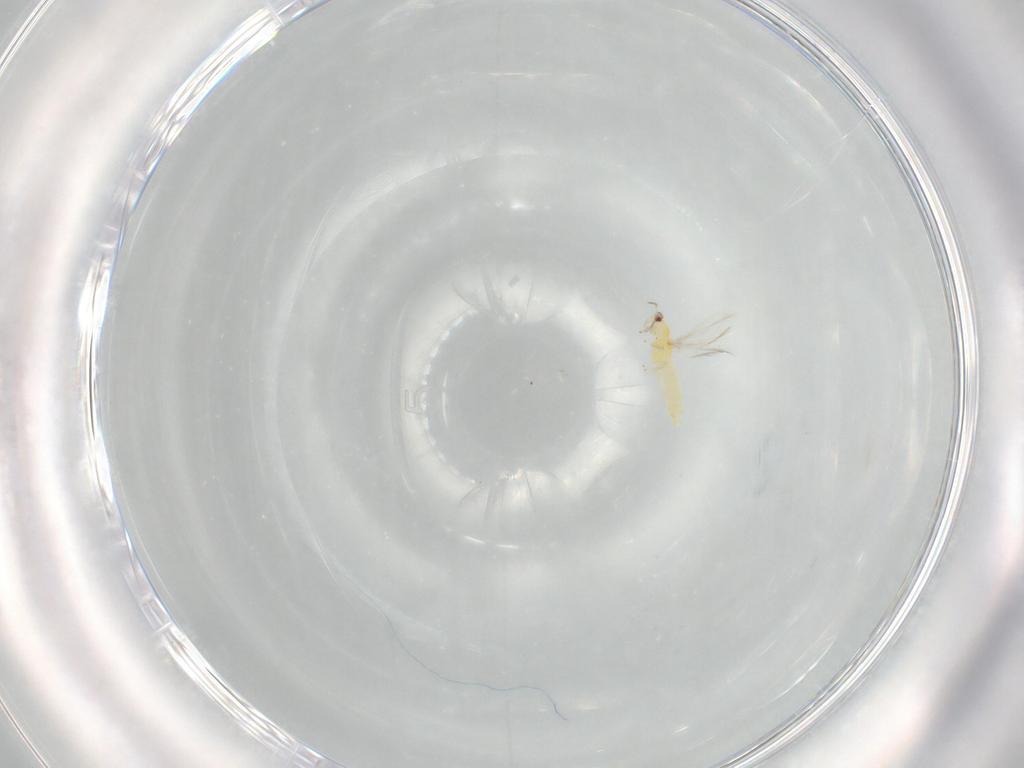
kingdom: Animalia
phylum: Arthropoda
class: Insecta
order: Thysanoptera
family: Thripidae
